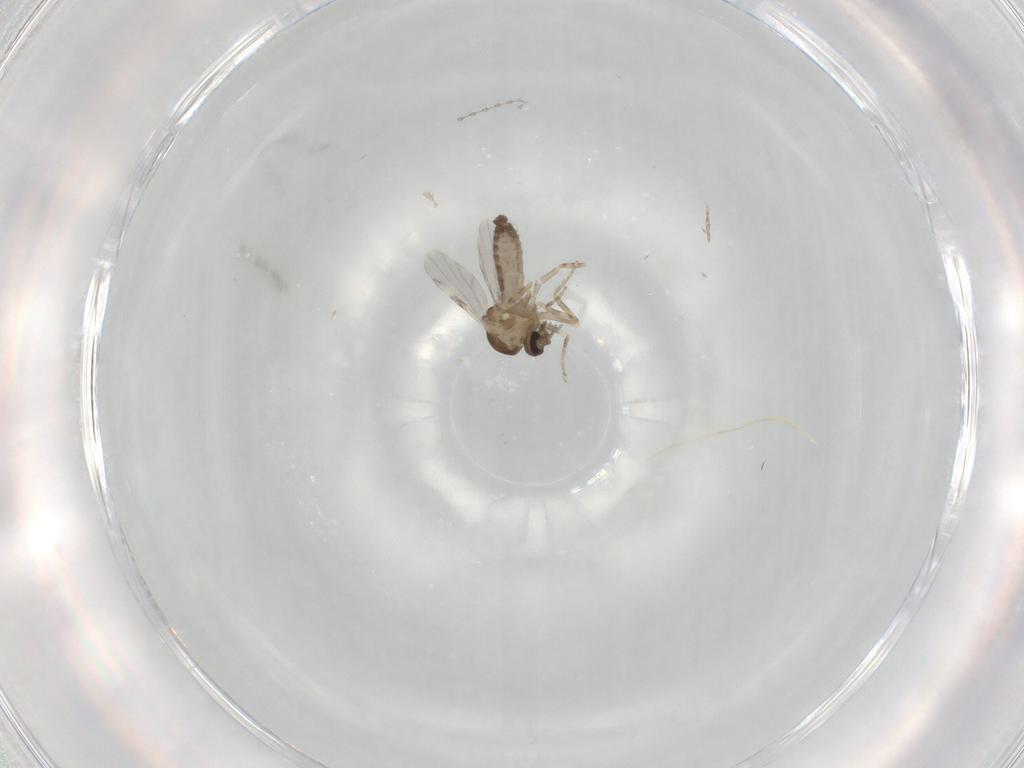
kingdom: Animalia
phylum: Arthropoda
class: Insecta
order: Diptera
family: Ceratopogonidae
